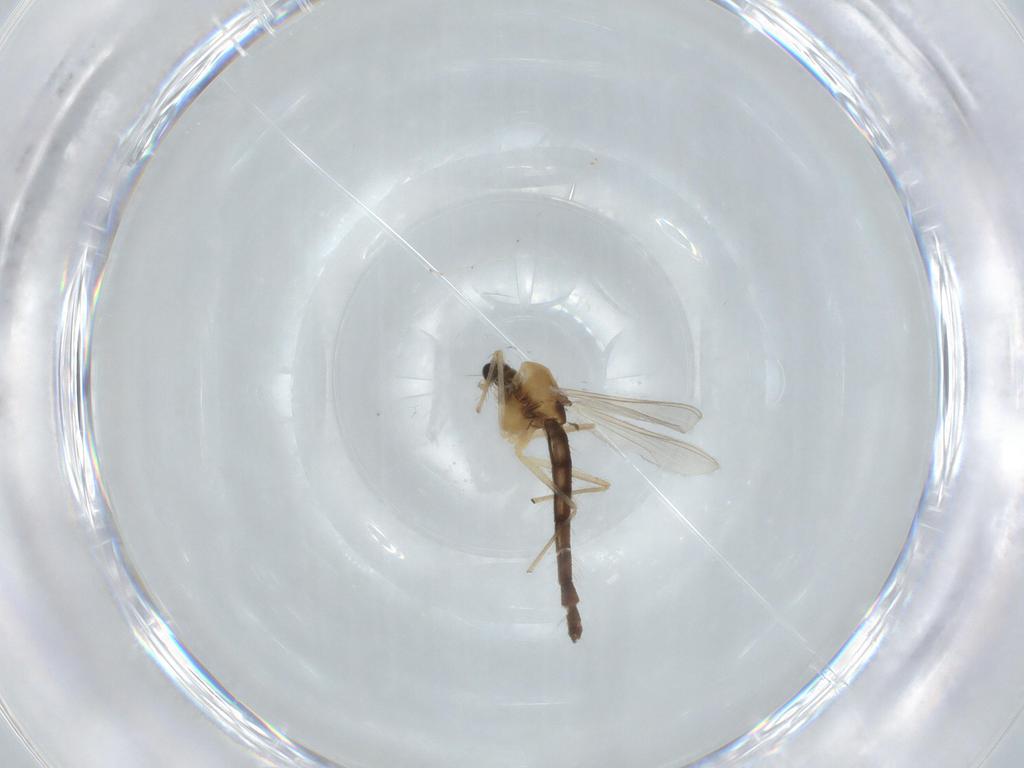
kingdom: Animalia
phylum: Arthropoda
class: Insecta
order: Diptera
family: Chironomidae
